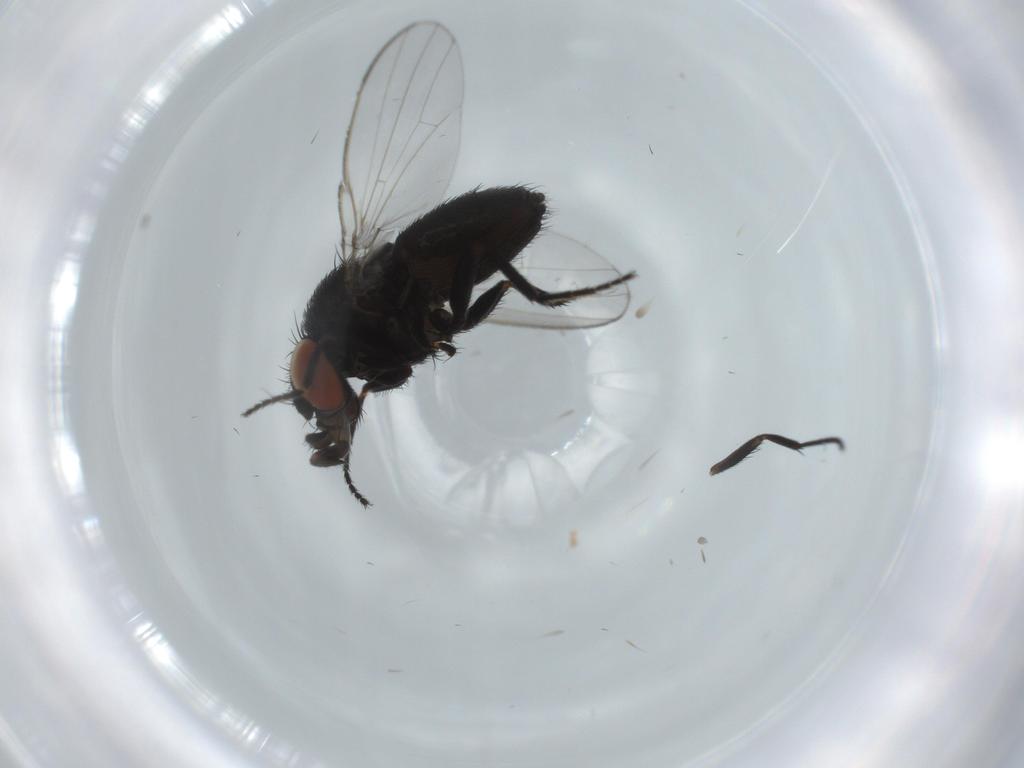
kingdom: Animalia
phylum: Arthropoda
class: Insecta
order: Diptera
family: Milichiidae
